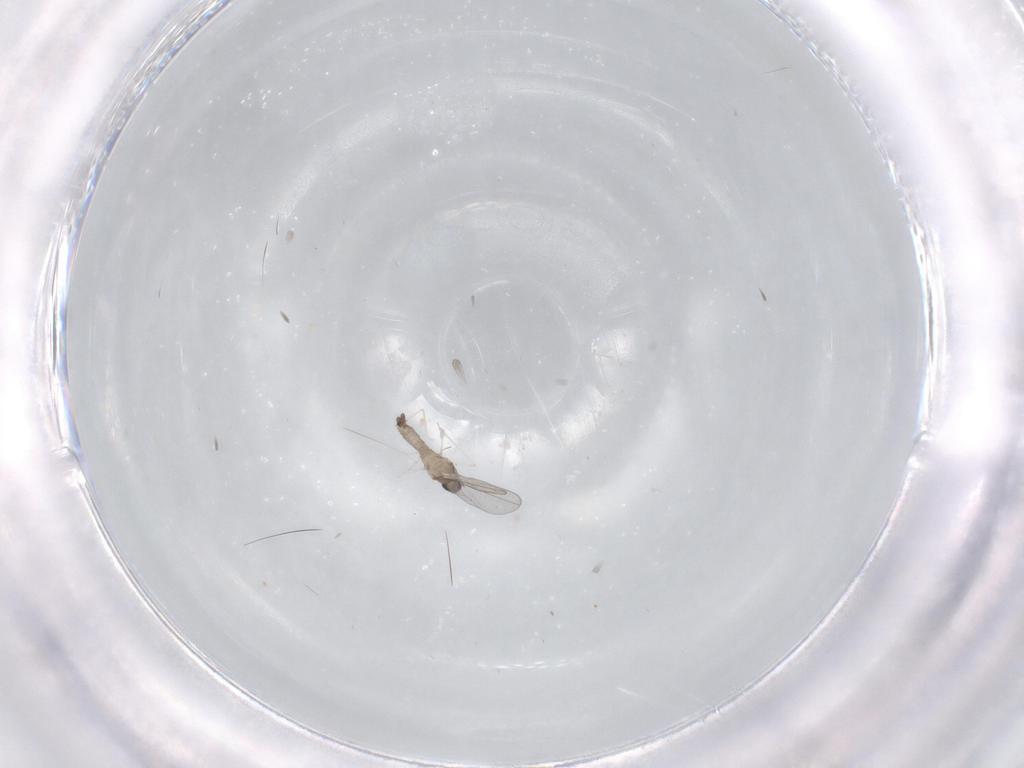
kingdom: Animalia
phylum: Arthropoda
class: Insecta
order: Diptera
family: Cecidomyiidae
